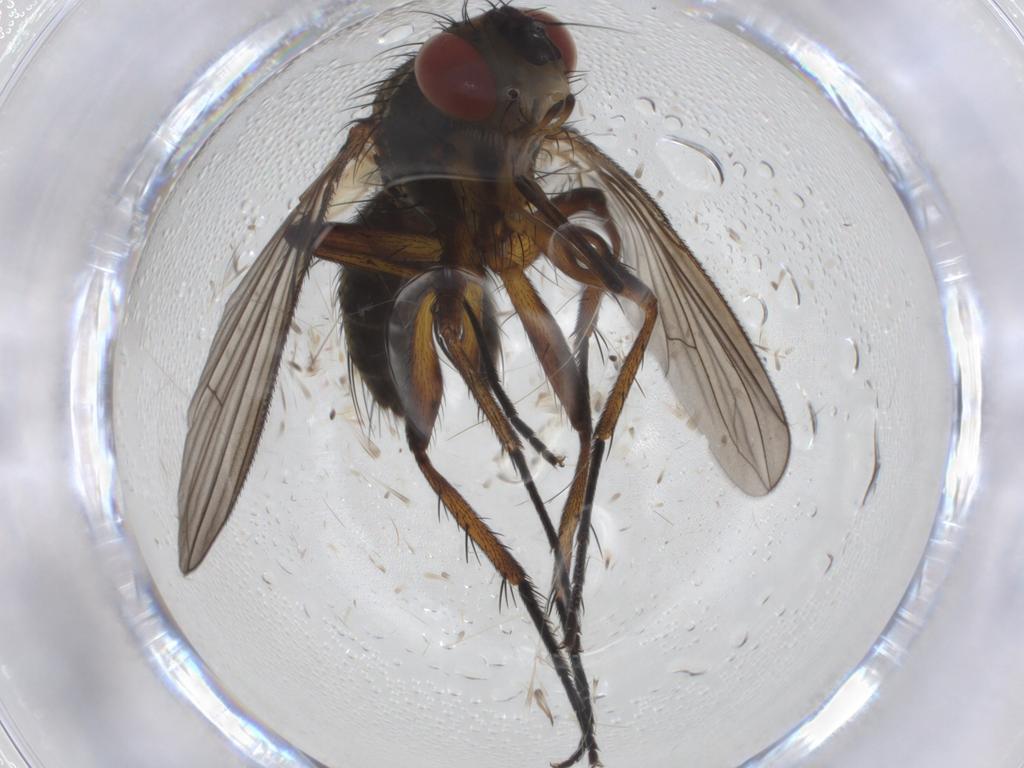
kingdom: Animalia
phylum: Arthropoda
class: Insecta
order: Diptera
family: Tachinidae
